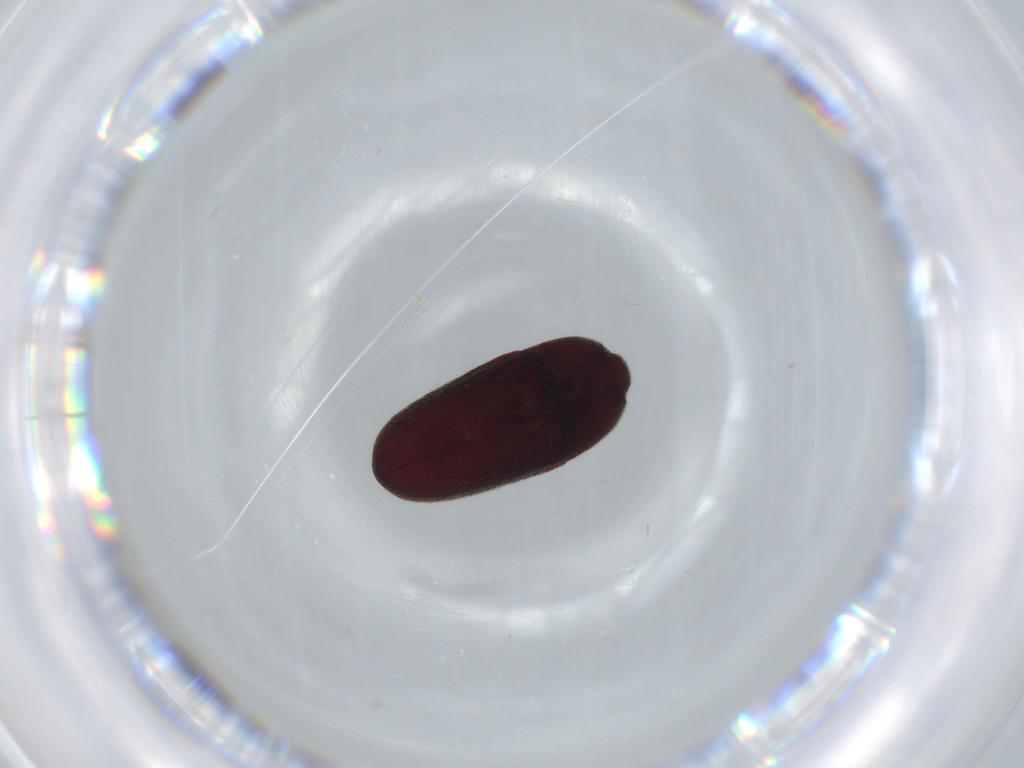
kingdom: Animalia
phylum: Arthropoda
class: Insecta
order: Coleoptera
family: Throscidae
